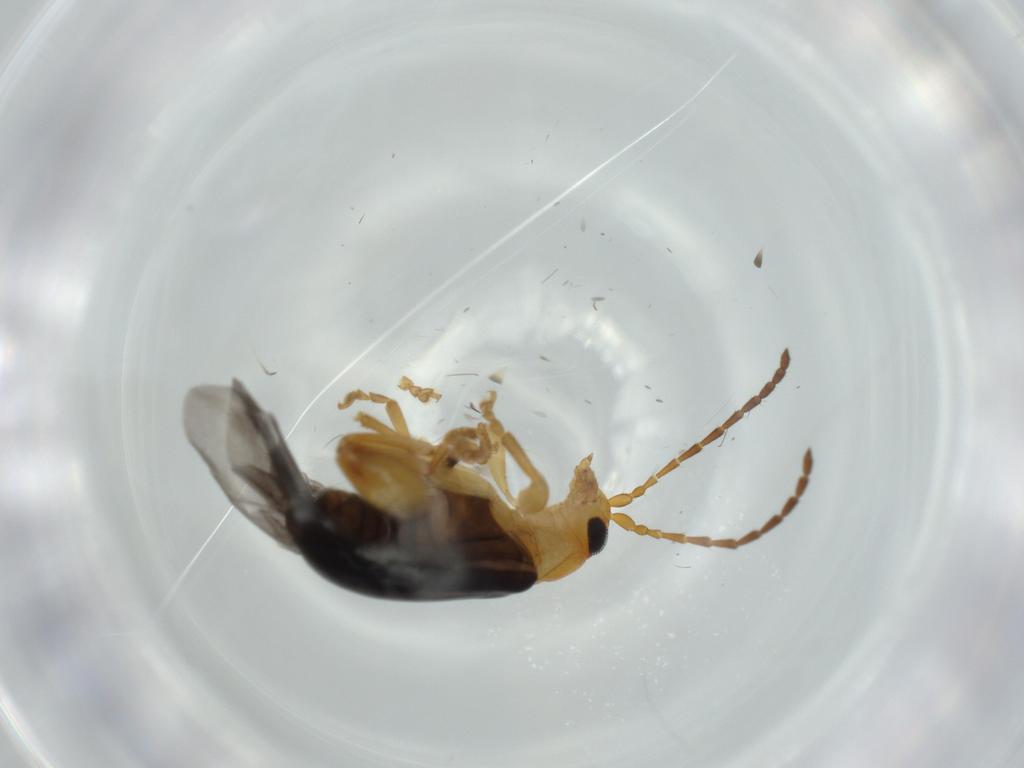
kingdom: Animalia
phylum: Arthropoda
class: Insecta
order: Coleoptera
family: Chrysomelidae
